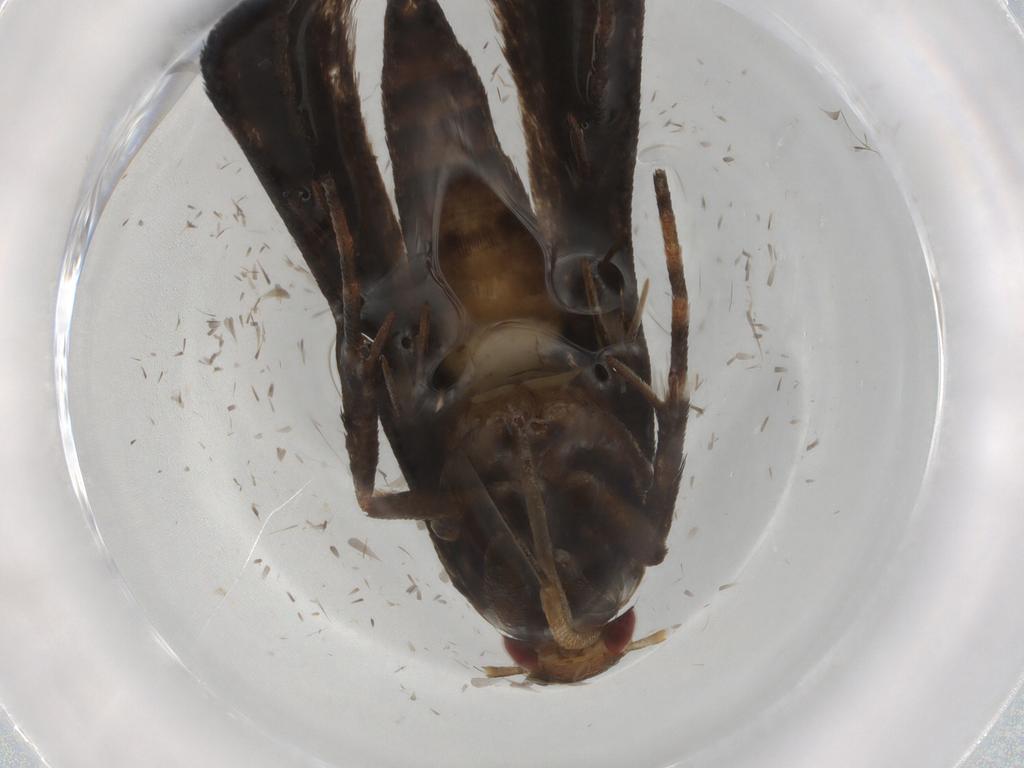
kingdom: Animalia
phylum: Arthropoda
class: Insecta
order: Lepidoptera
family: Gelechiidae
